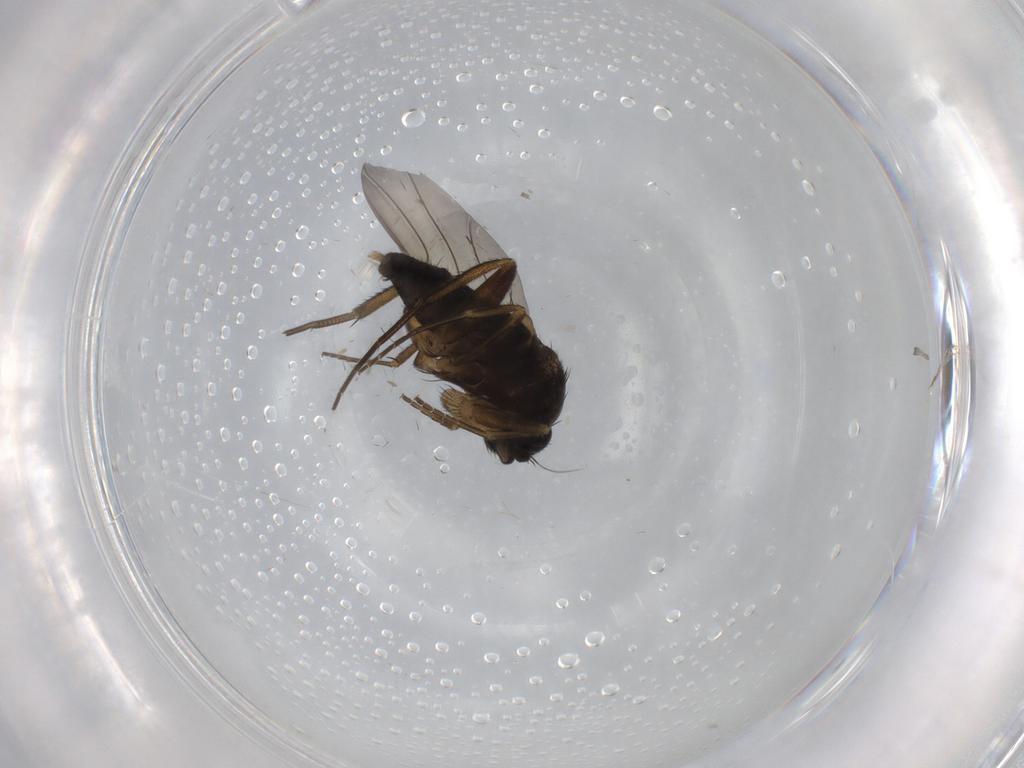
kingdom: Animalia
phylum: Arthropoda
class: Insecta
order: Diptera
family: Phoridae
